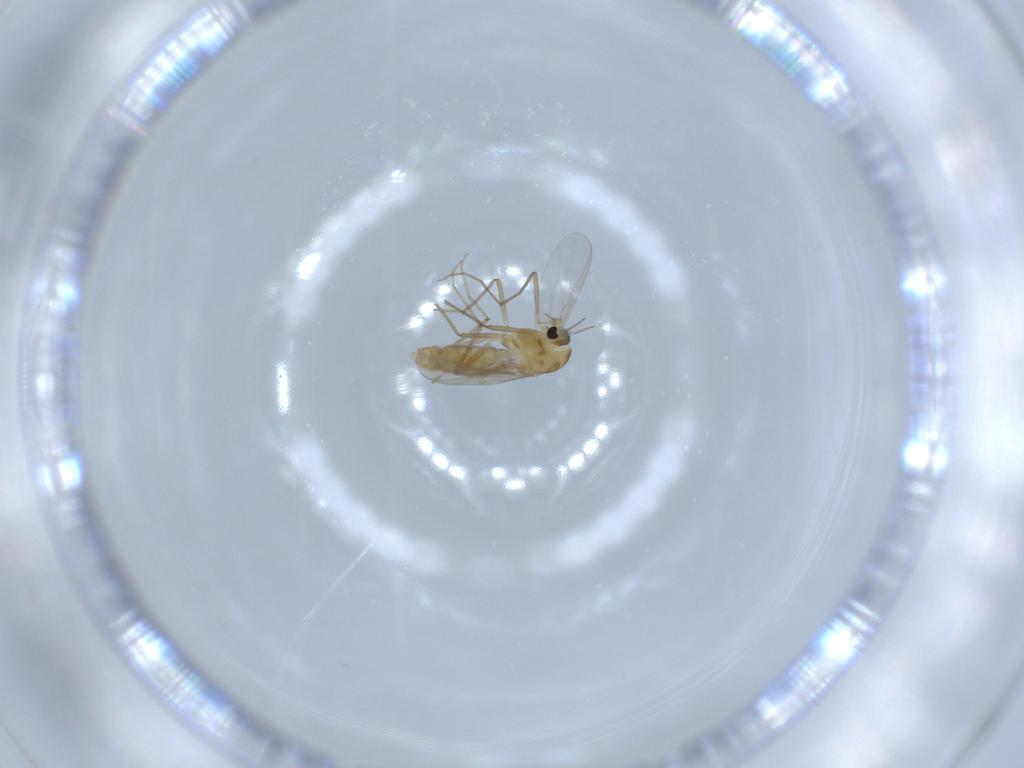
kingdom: Animalia
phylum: Arthropoda
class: Insecta
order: Diptera
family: Chironomidae
